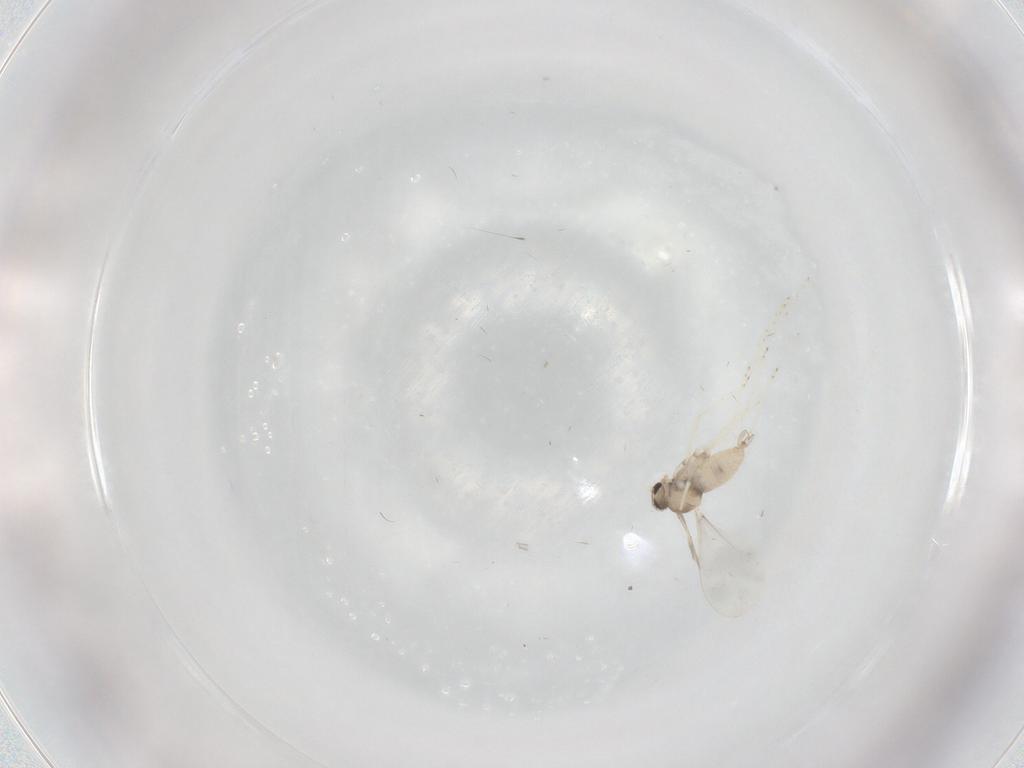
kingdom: Animalia
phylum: Arthropoda
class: Insecta
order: Diptera
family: Cecidomyiidae
